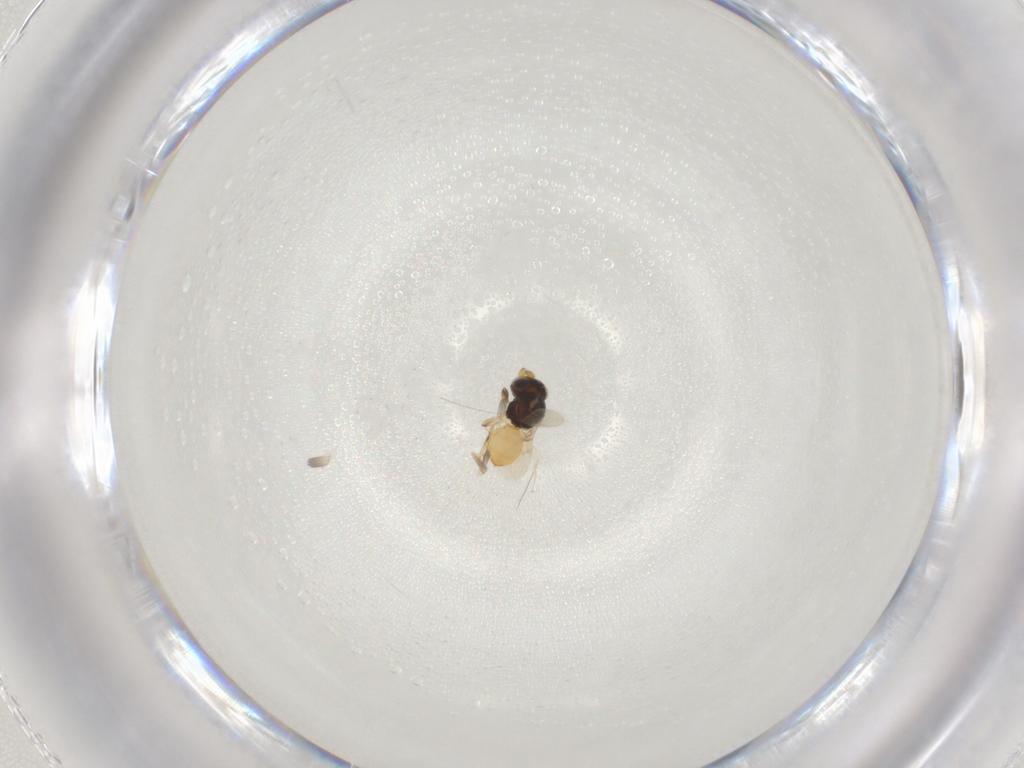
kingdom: Animalia
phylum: Arthropoda
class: Insecta
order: Hymenoptera
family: Scelionidae
